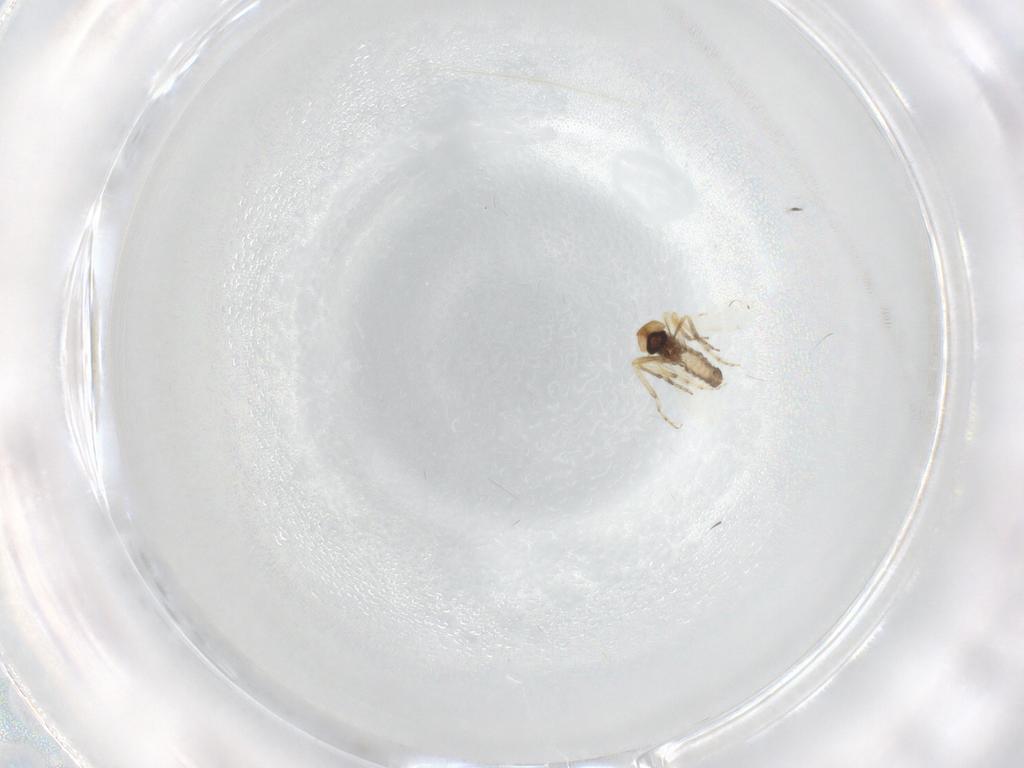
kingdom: Animalia
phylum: Arthropoda
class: Insecta
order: Diptera
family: Ceratopogonidae
